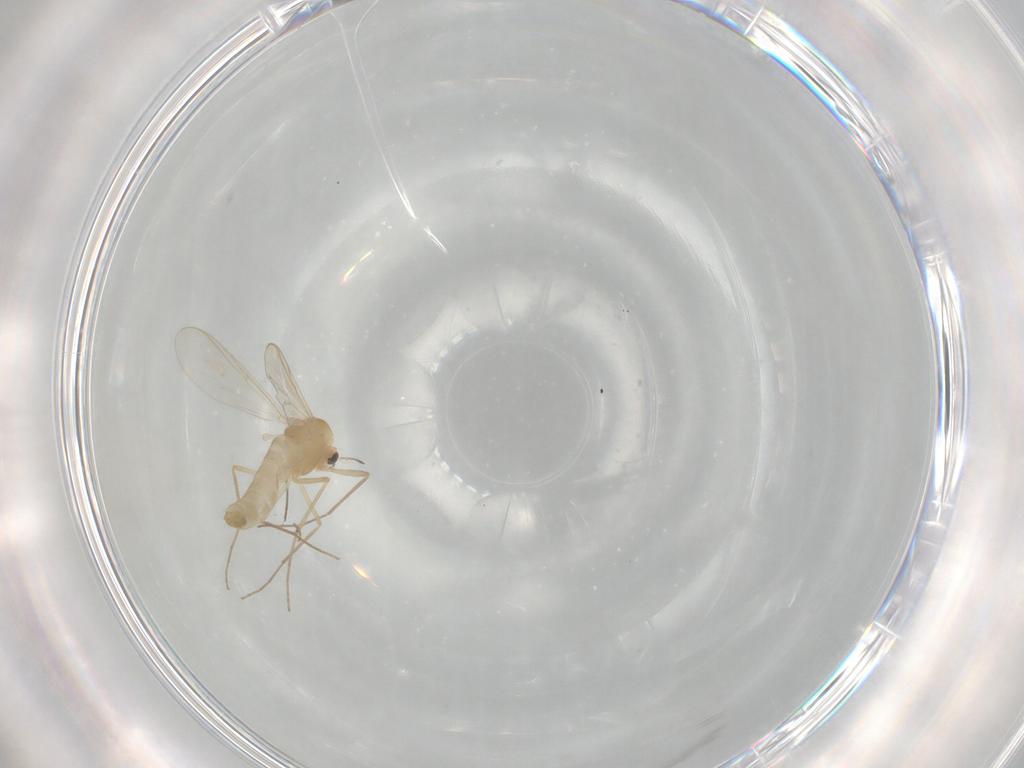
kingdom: Animalia
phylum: Arthropoda
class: Insecta
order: Diptera
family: Chironomidae
